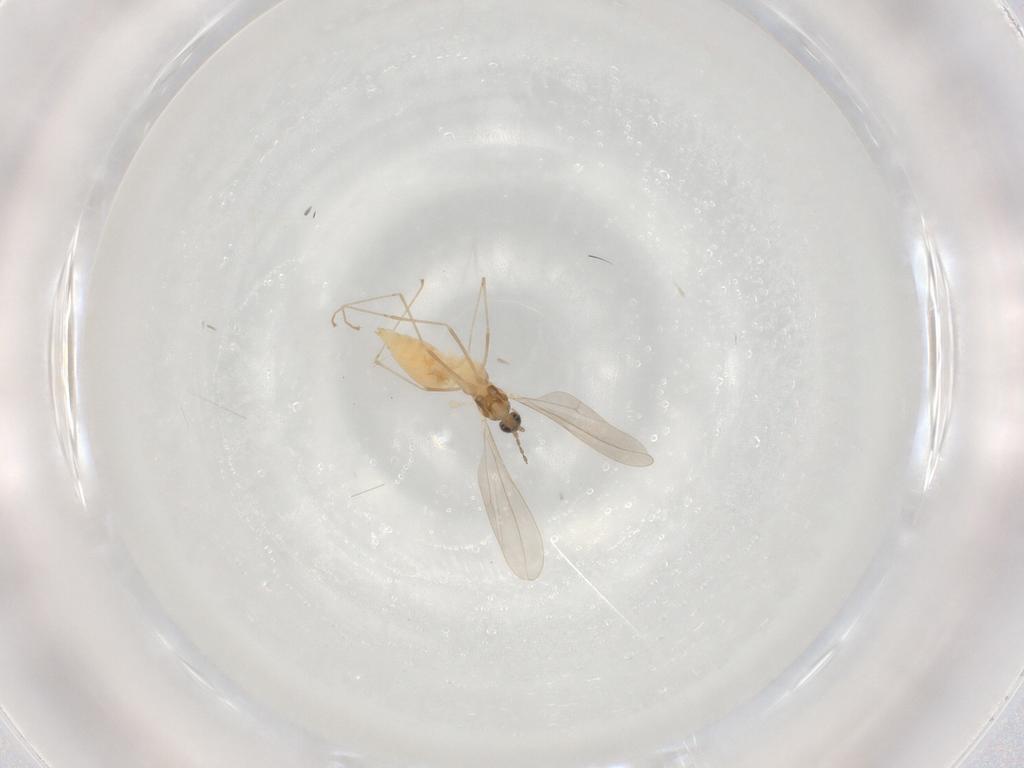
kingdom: Animalia
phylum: Arthropoda
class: Insecta
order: Diptera
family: Cecidomyiidae
